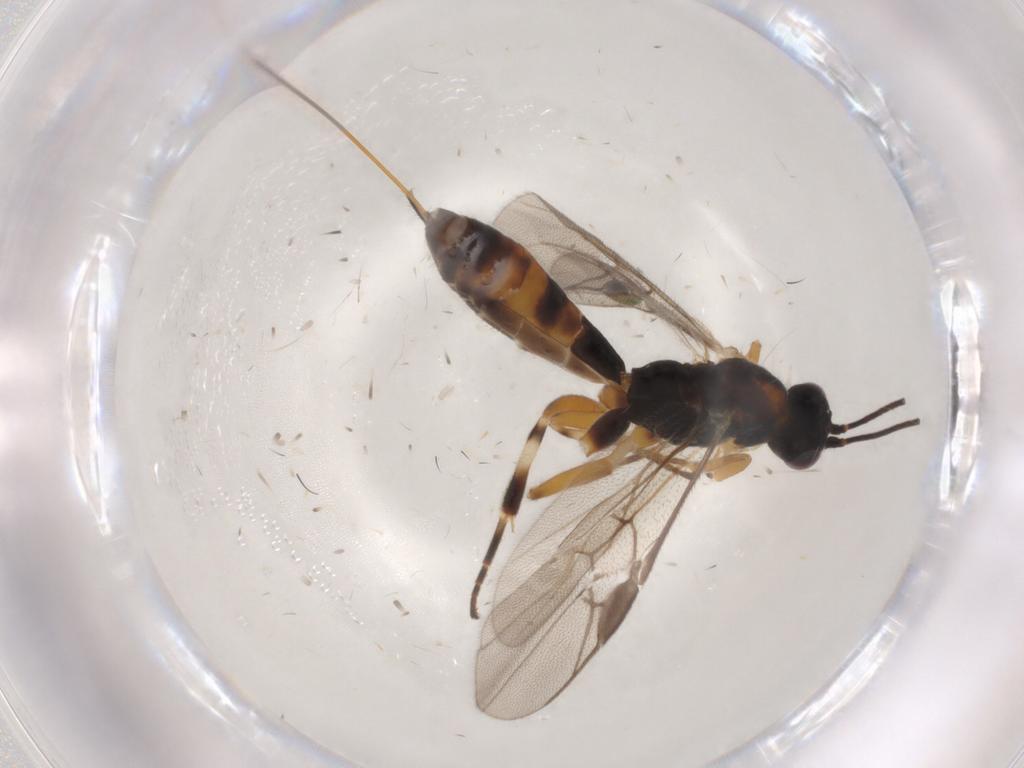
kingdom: Animalia
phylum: Arthropoda
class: Insecta
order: Hymenoptera
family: Braconidae
